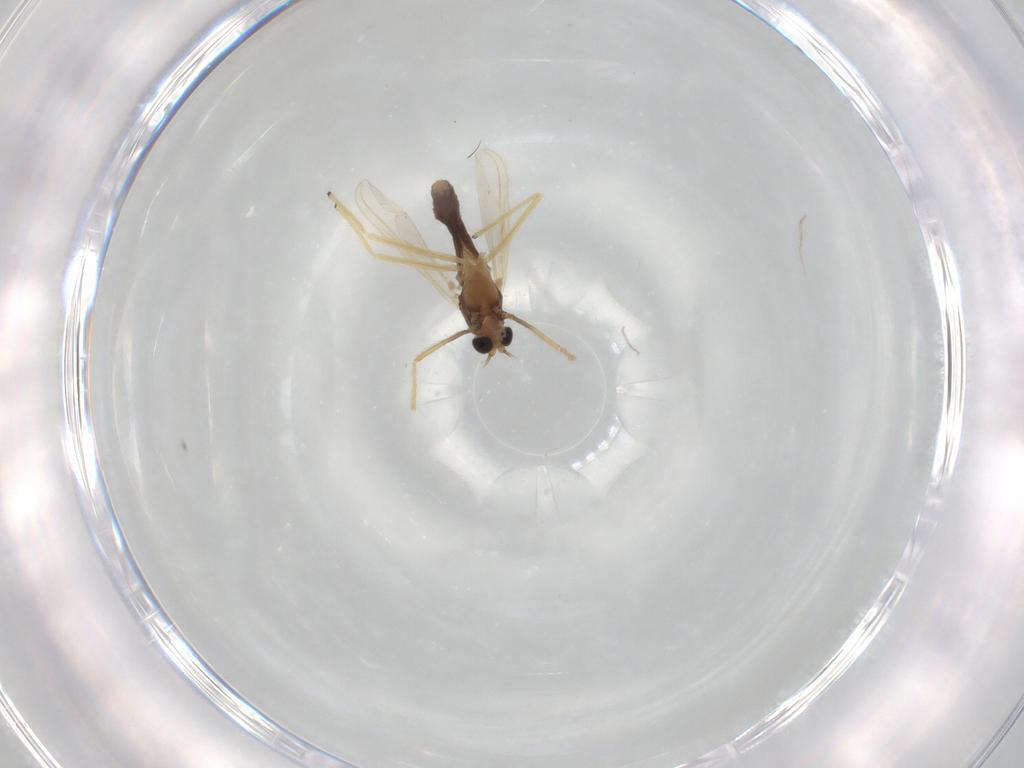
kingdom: Animalia
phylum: Arthropoda
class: Insecta
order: Diptera
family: Chironomidae
